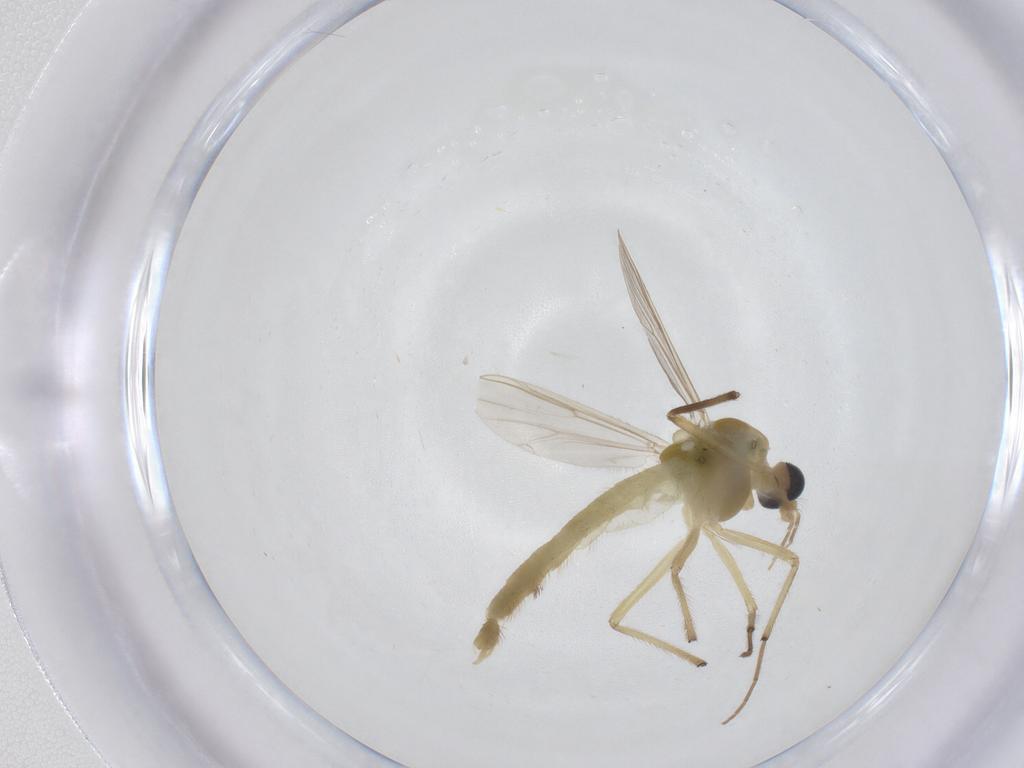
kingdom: Animalia
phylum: Arthropoda
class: Insecta
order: Diptera
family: Chironomidae
